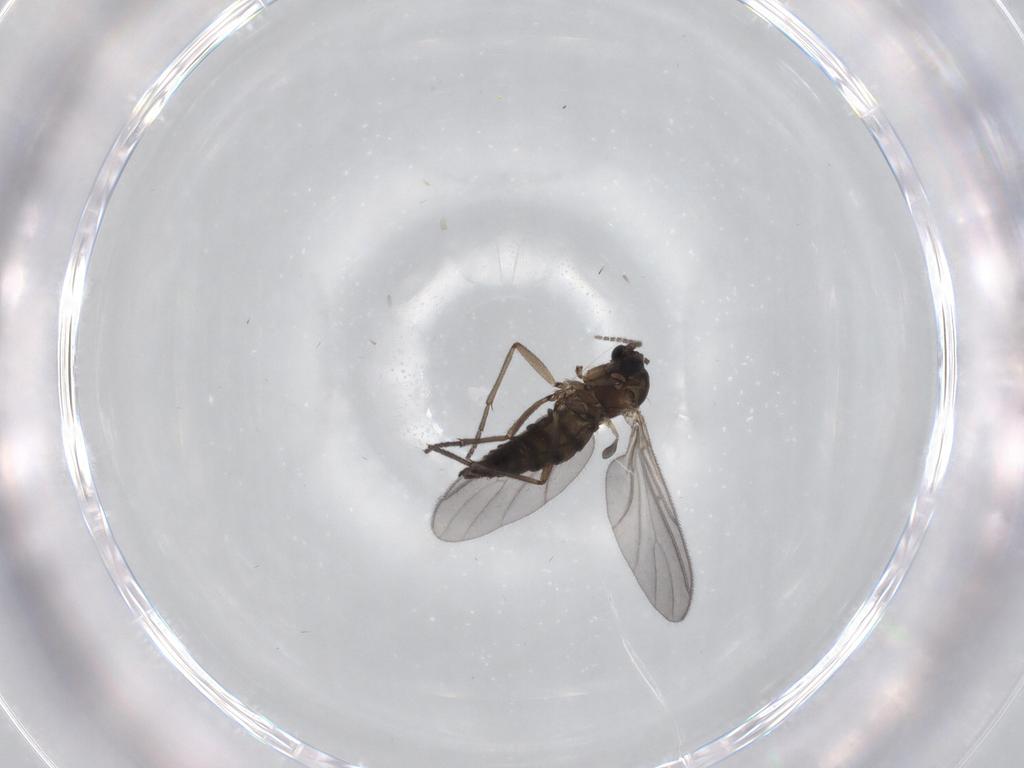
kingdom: Animalia
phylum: Arthropoda
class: Insecta
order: Diptera
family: Sciaridae
